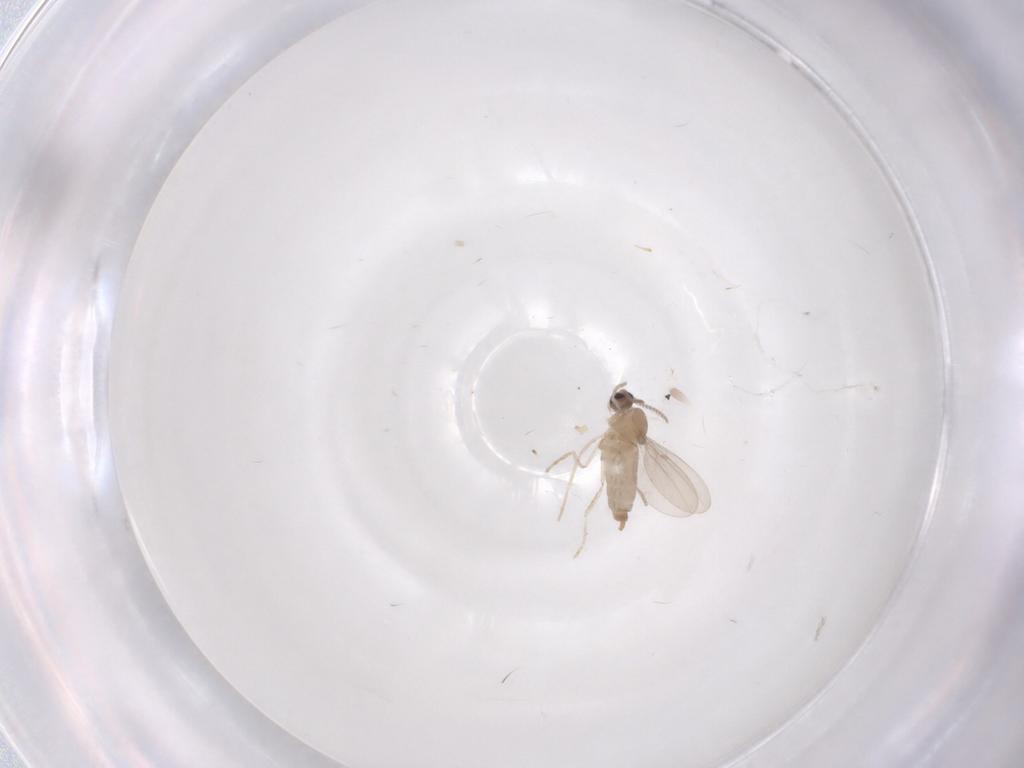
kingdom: Animalia
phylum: Arthropoda
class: Insecta
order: Diptera
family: Cecidomyiidae
